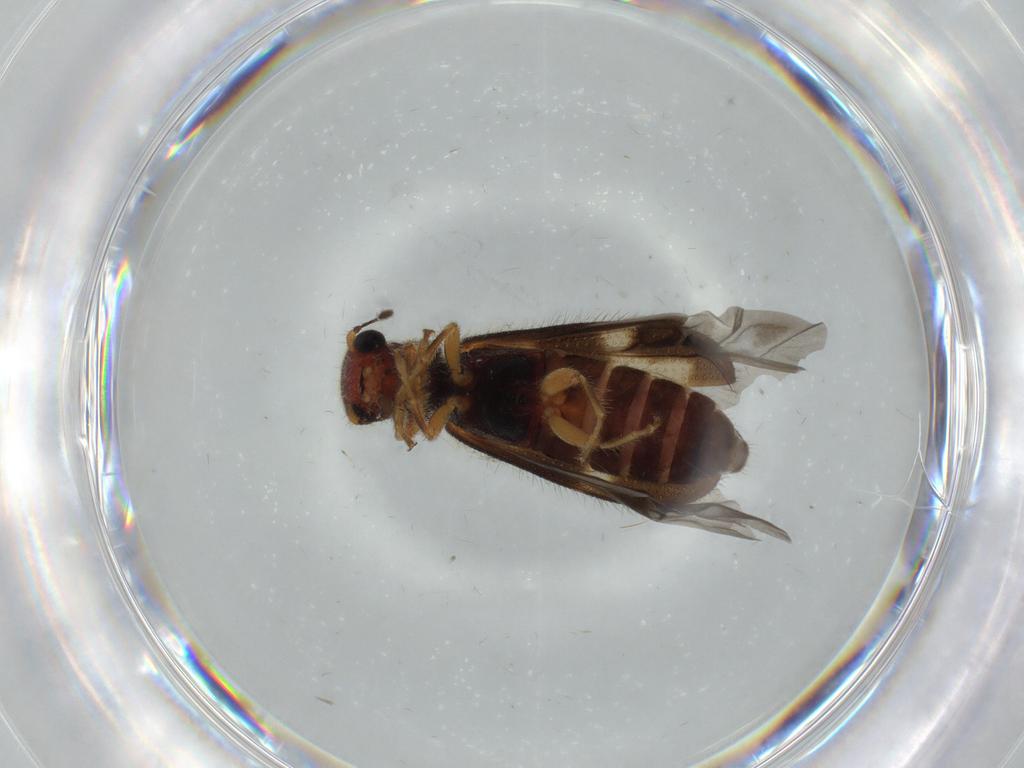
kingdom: Animalia
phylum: Arthropoda
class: Insecta
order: Coleoptera
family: Cleridae
